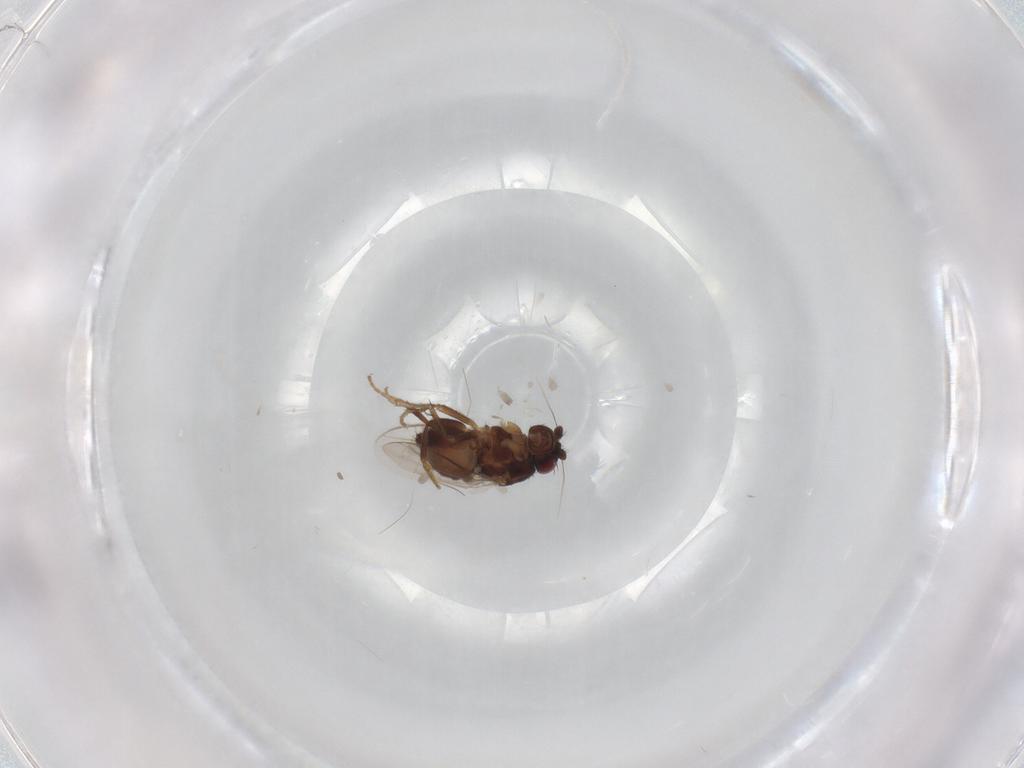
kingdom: Animalia
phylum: Arthropoda
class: Insecta
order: Diptera
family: Sphaeroceridae
